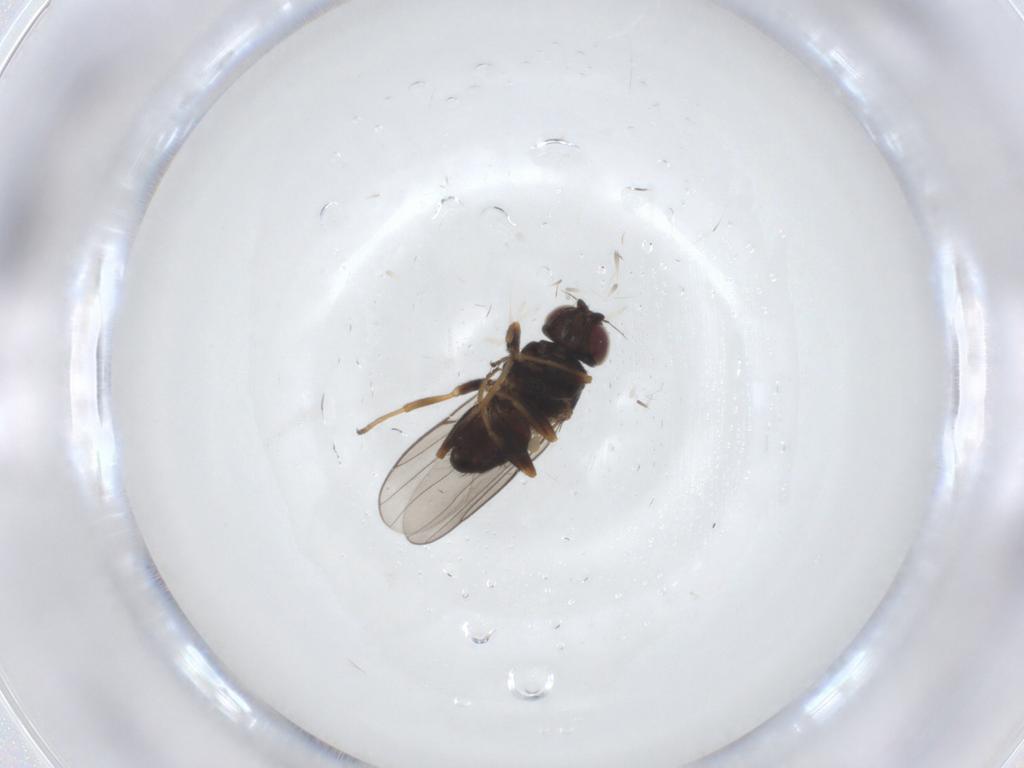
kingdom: Animalia
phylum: Arthropoda
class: Insecta
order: Diptera
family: Chloropidae
